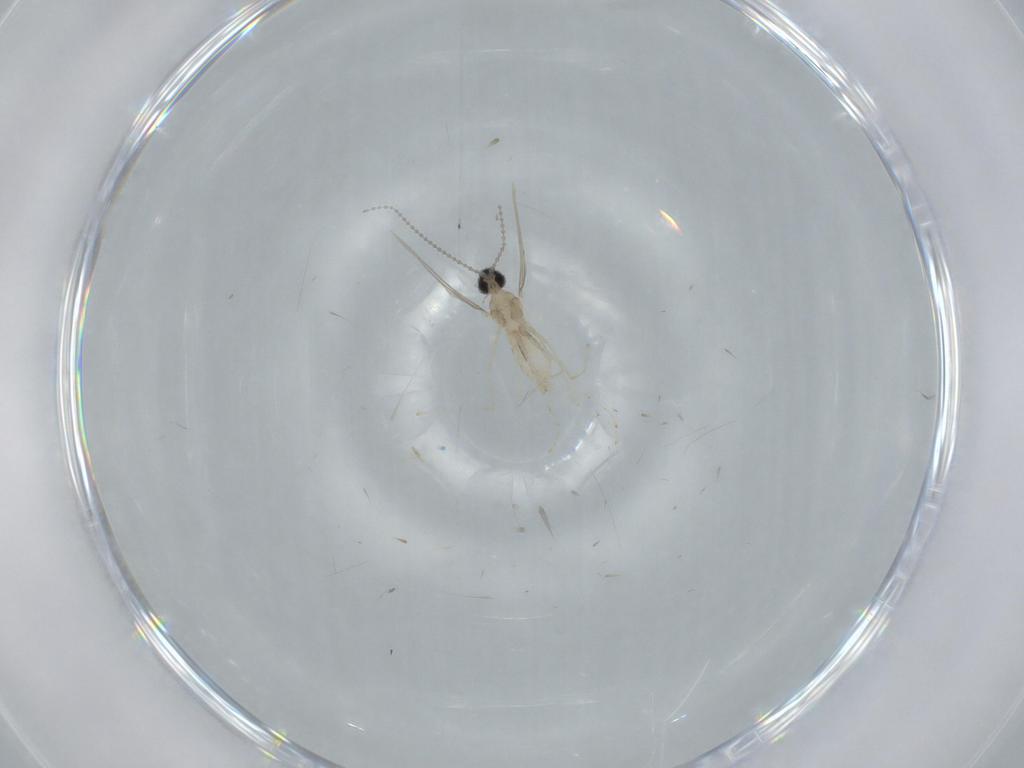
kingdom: Animalia
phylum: Arthropoda
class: Insecta
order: Diptera
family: Cecidomyiidae
